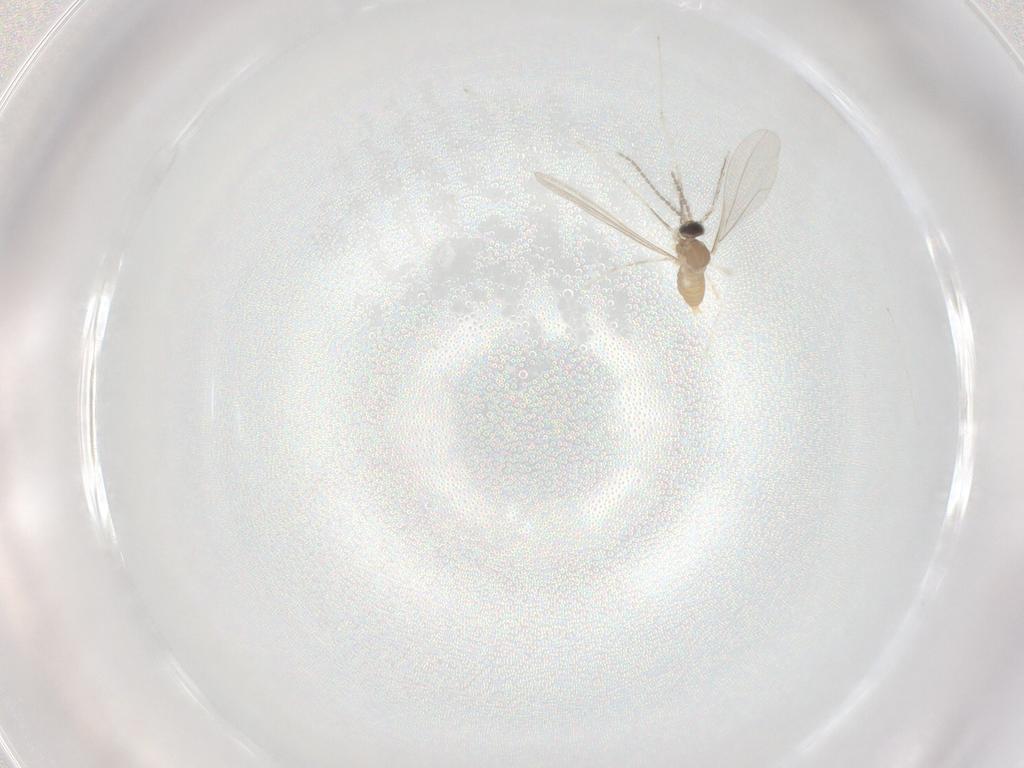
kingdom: Animalia
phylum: Arthropoda
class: Insecta
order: Diptera
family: Cecidomyiidae
